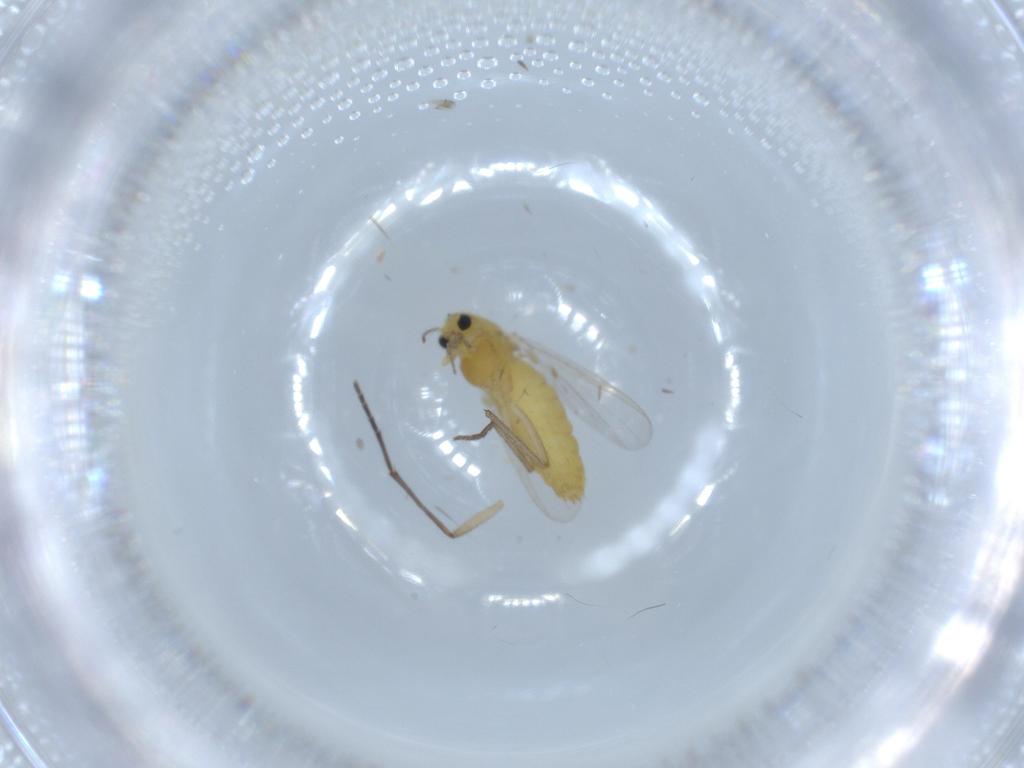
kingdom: Animalia
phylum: Arthropoda
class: Insecta
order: Diptera
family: Chironomidae
